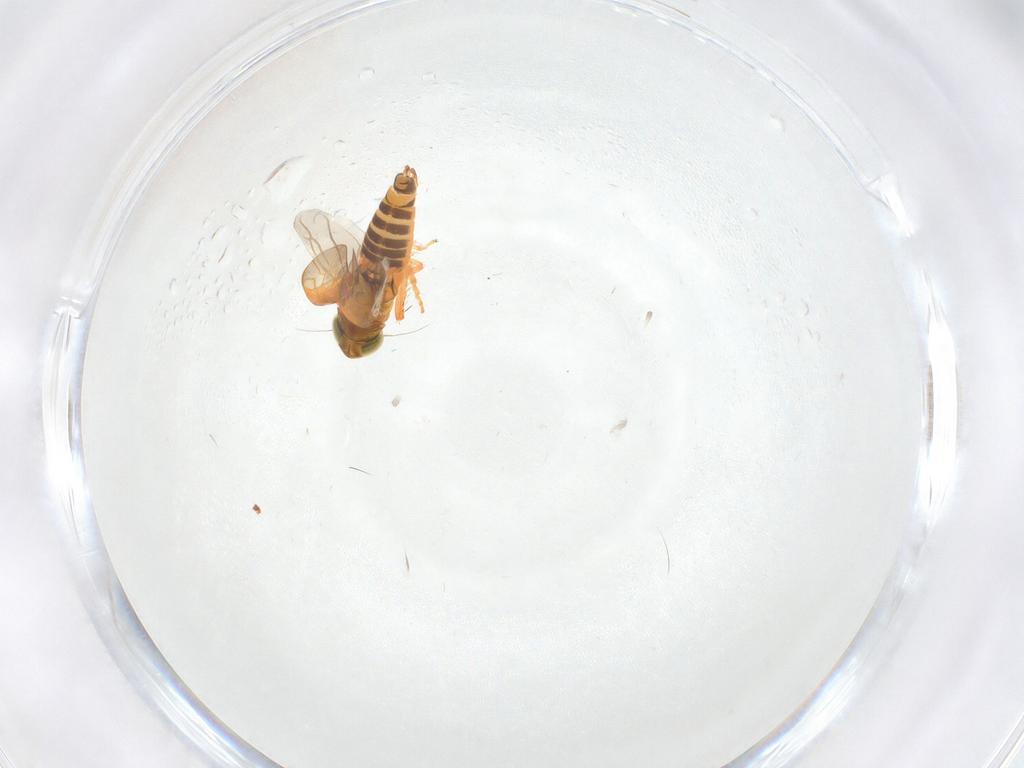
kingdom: Animalia
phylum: Arthropoda
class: Insecta
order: Hemiptera
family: Cicadellidae
